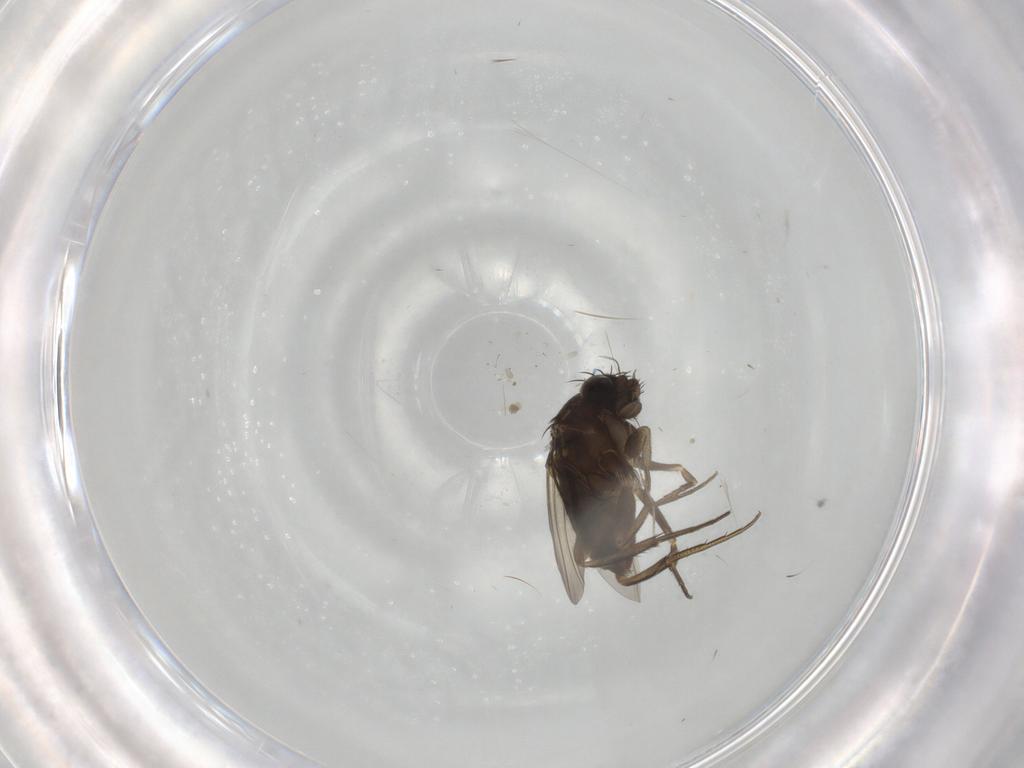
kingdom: Animalia
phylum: Arthropoda
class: Insecta
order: Diptera
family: Phoridae
